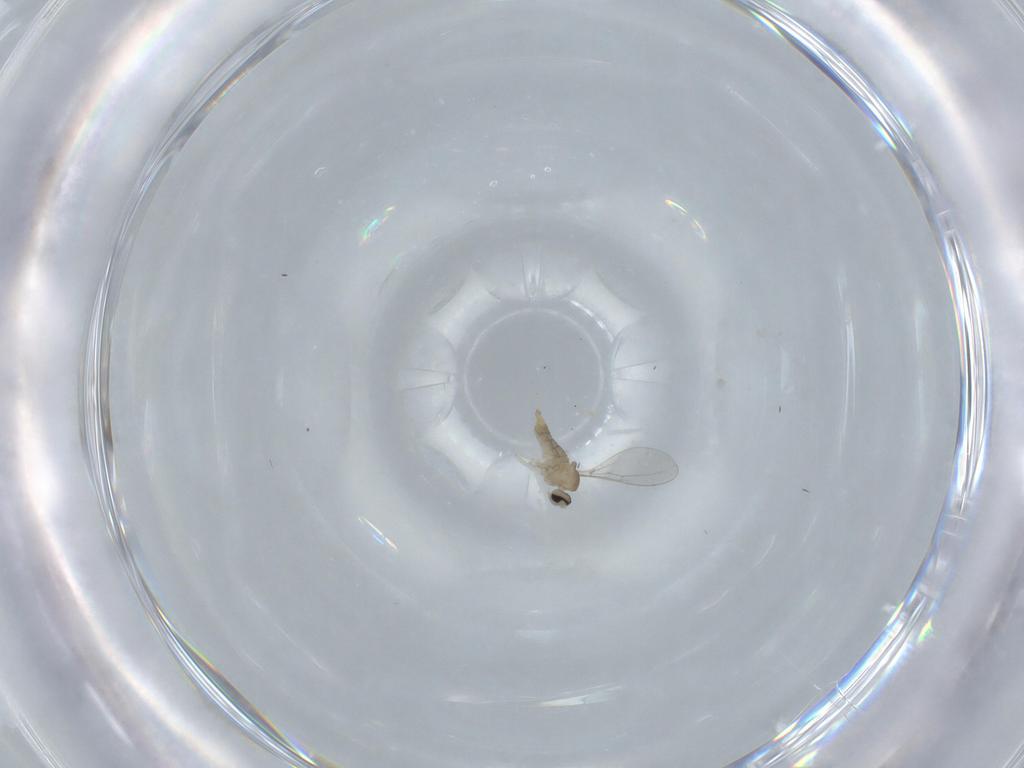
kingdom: Animalia
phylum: Arthropoda
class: Insecta
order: Diptera
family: Cecidomyiidae
